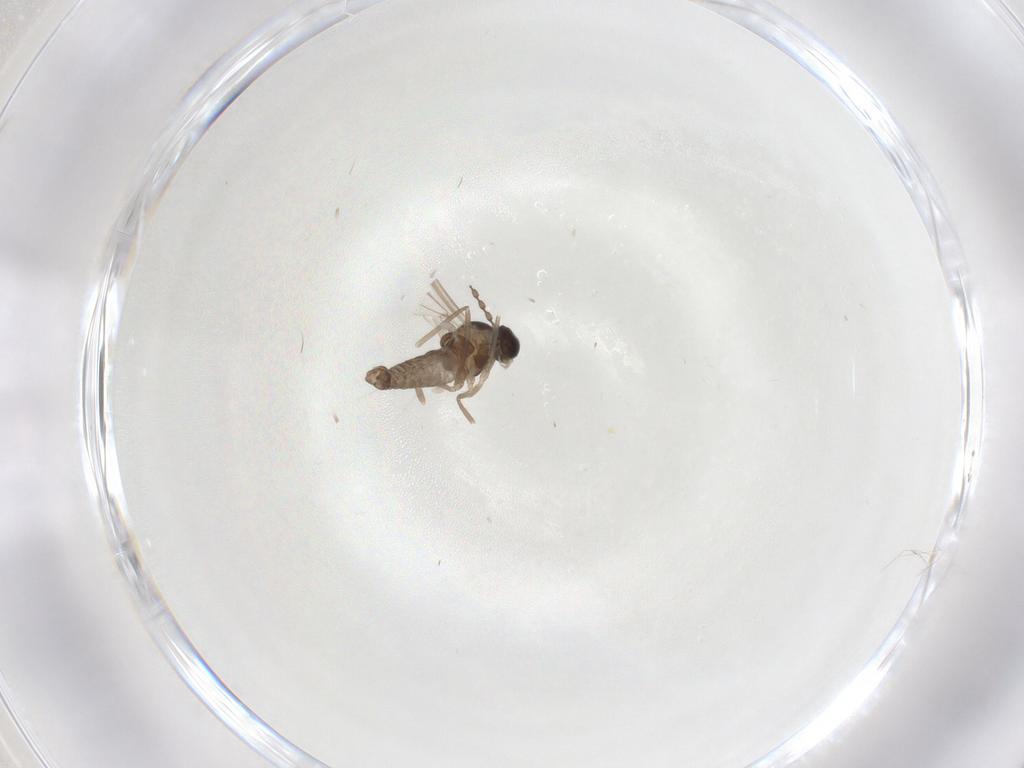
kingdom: Animalia
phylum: Arthropoda
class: Insecta
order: Diptera
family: Cecidomyiidae
